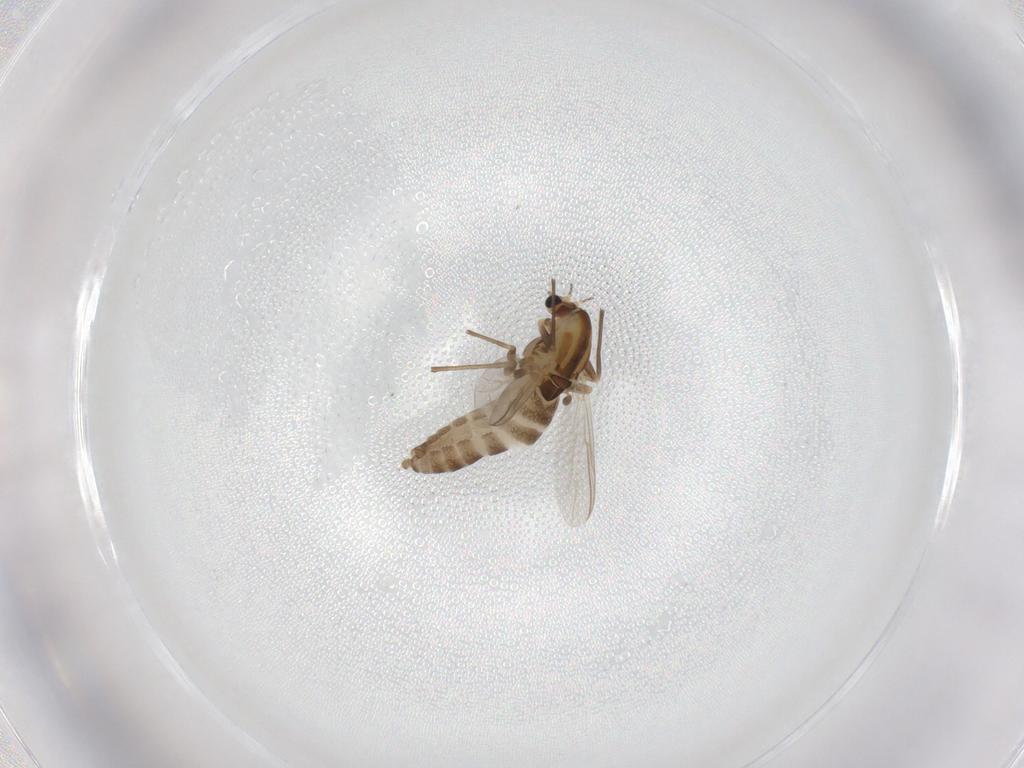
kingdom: Animalia
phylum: Arthropoda
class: Insecta
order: Diptera
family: Chironomidae
